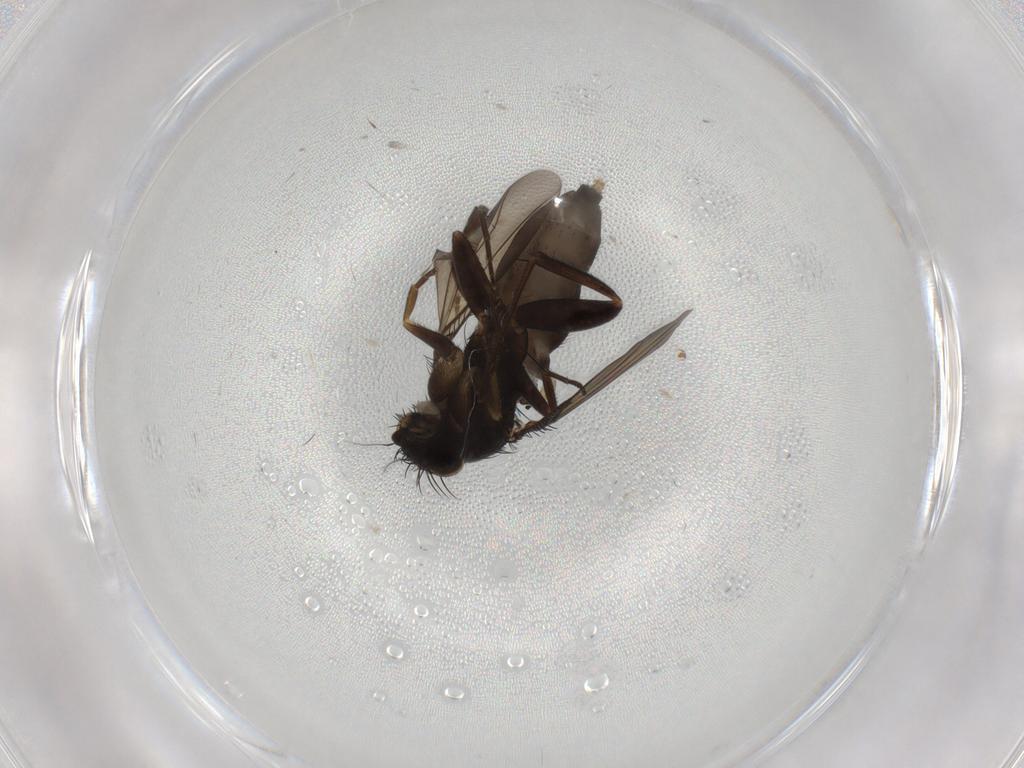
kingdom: Animalia
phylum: Arthropoda
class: Insecta
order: Diptera
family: Phoridae
